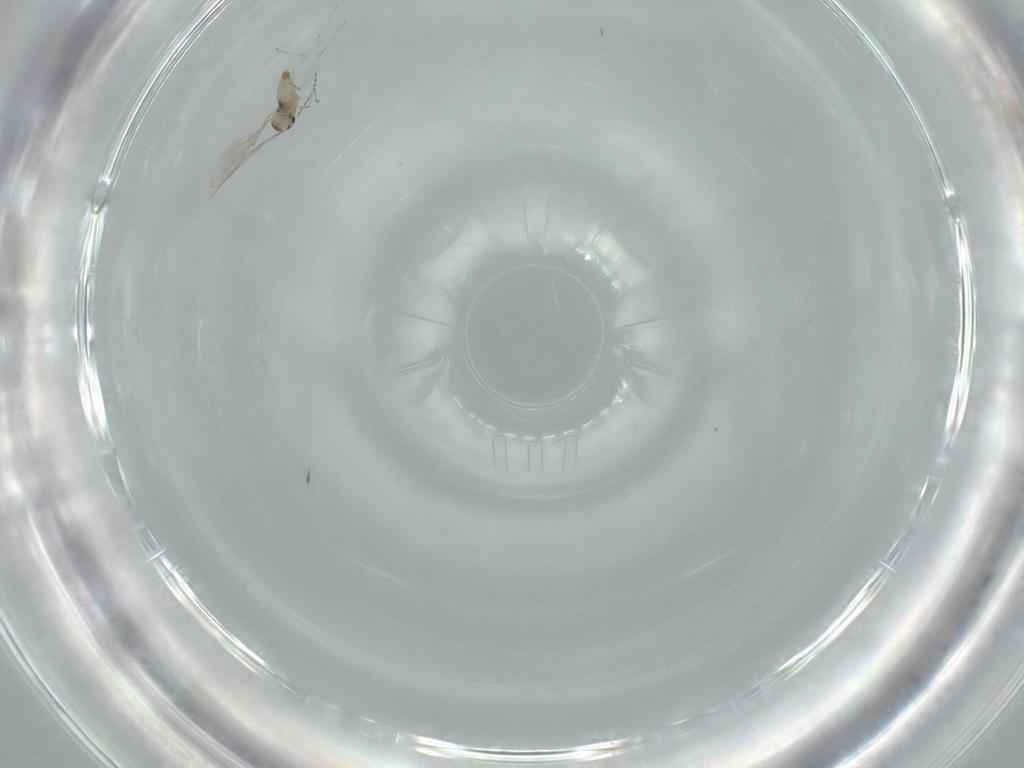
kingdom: Animalia
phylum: Arthropoda
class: Insecta
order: Diptera
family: Cecidomyiidae
